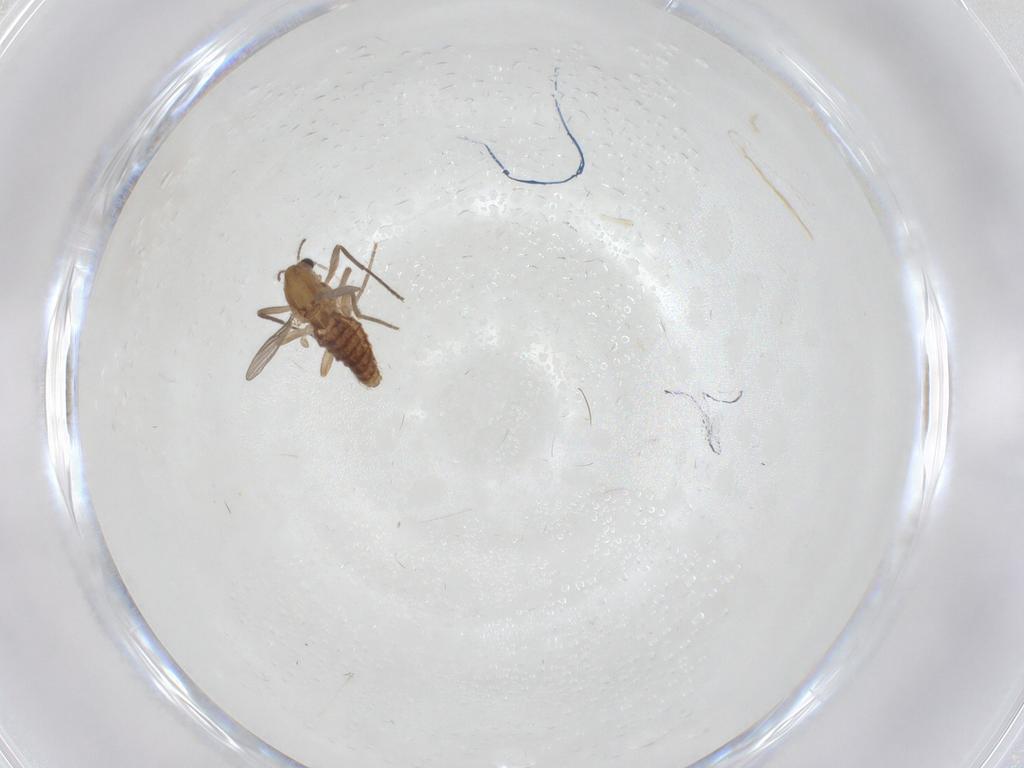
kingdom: Animalia
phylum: Arthropoda
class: Insecta
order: Diptera
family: Chironomidae
